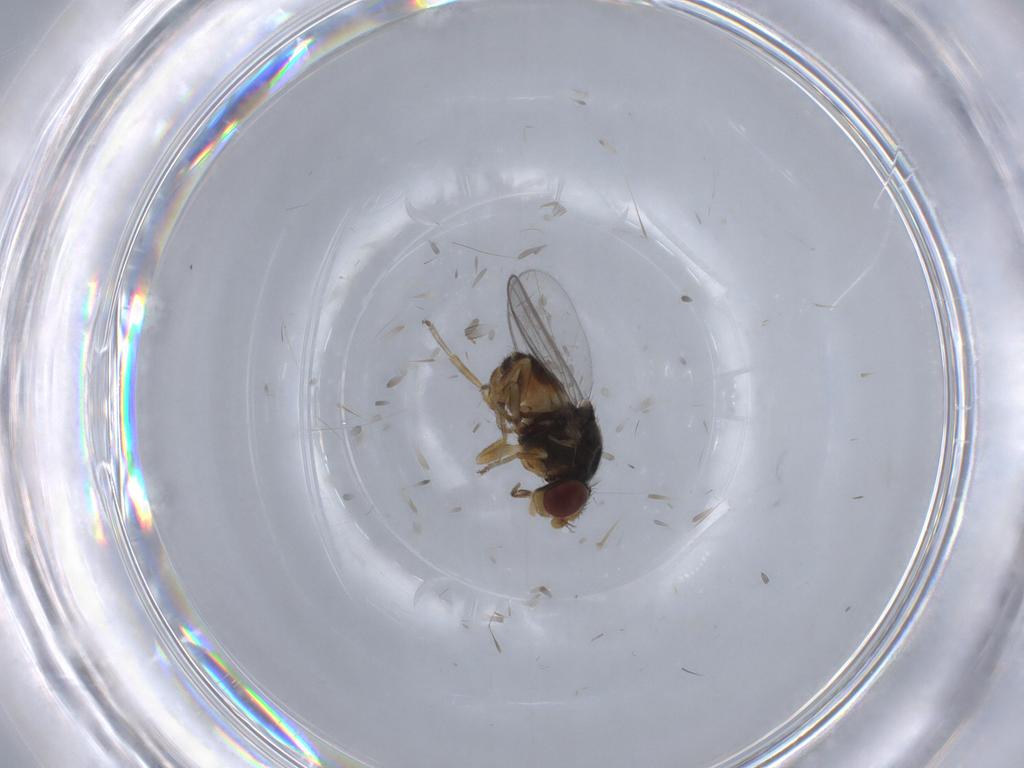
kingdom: Animalia
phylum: Arthropoda
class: Insecta
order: Diptera
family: Chloropidae
